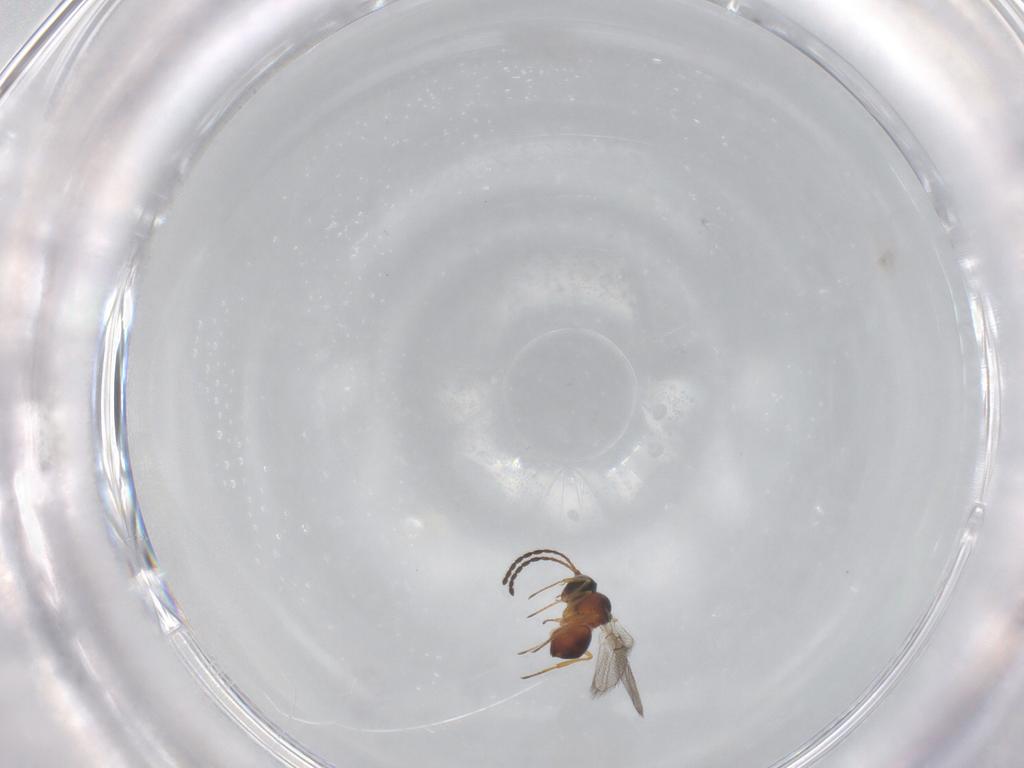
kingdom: Animalia
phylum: Arthropoda
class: Insecta
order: Hymenoptera
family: Figitidae
